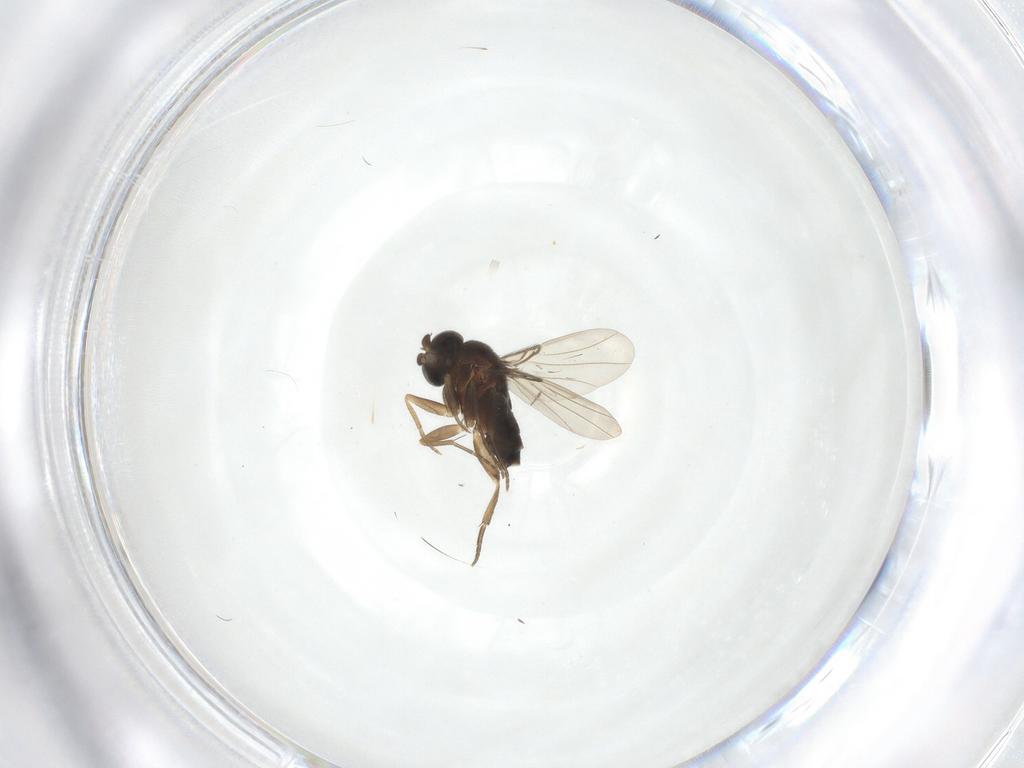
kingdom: Animalia
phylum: Arthropoda
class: Insecta
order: Diptera
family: Phoridae
